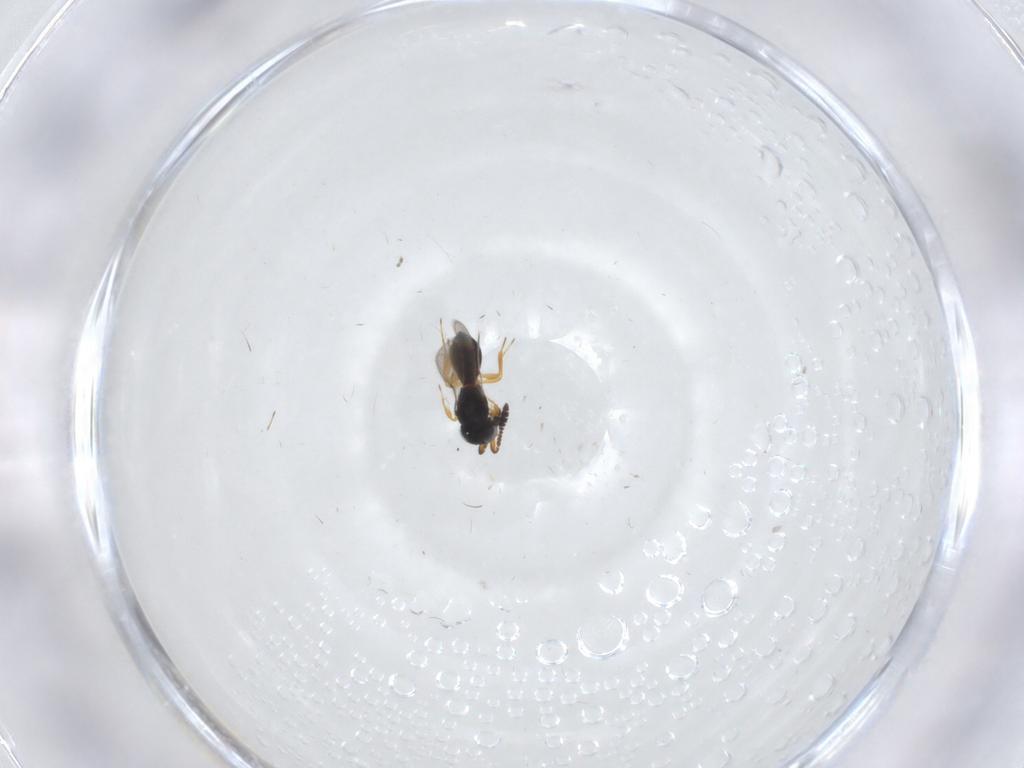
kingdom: Animalia
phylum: Arthropoda
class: Insecta
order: Hymenoptera
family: Scelionidae
